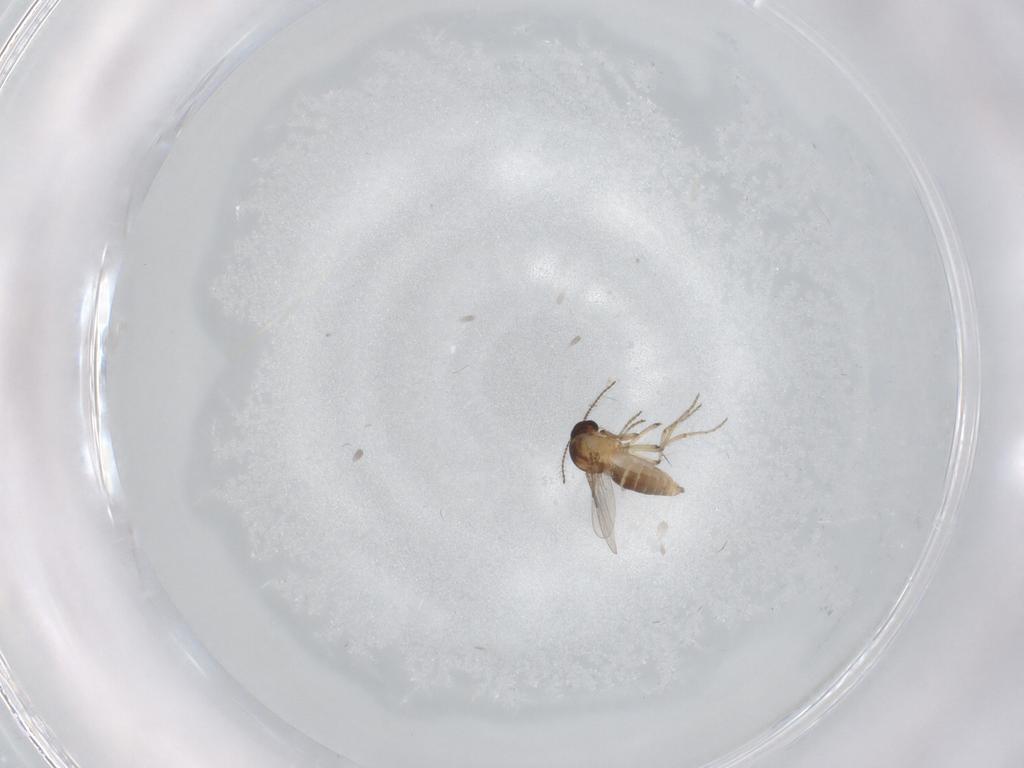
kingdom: Animalia
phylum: Arthropoda
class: Insecta
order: Diptera
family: Ceratopogonidae
